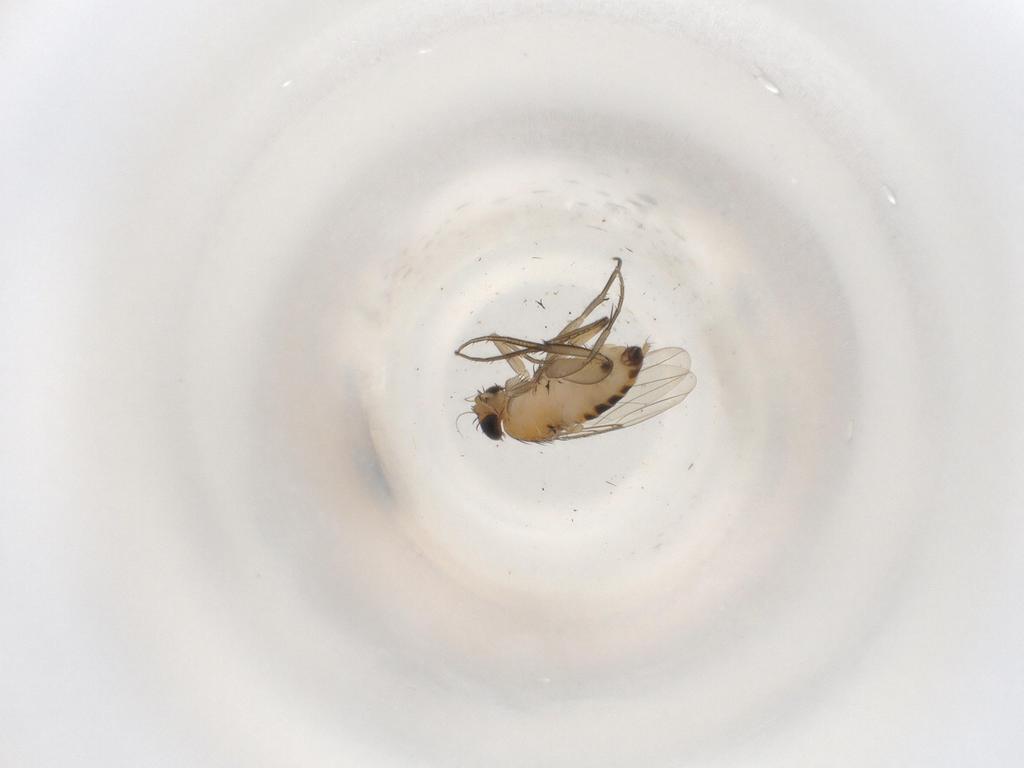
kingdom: Animalia
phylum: Arthropoda
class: Insecta
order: Diptera
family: Phoridae
